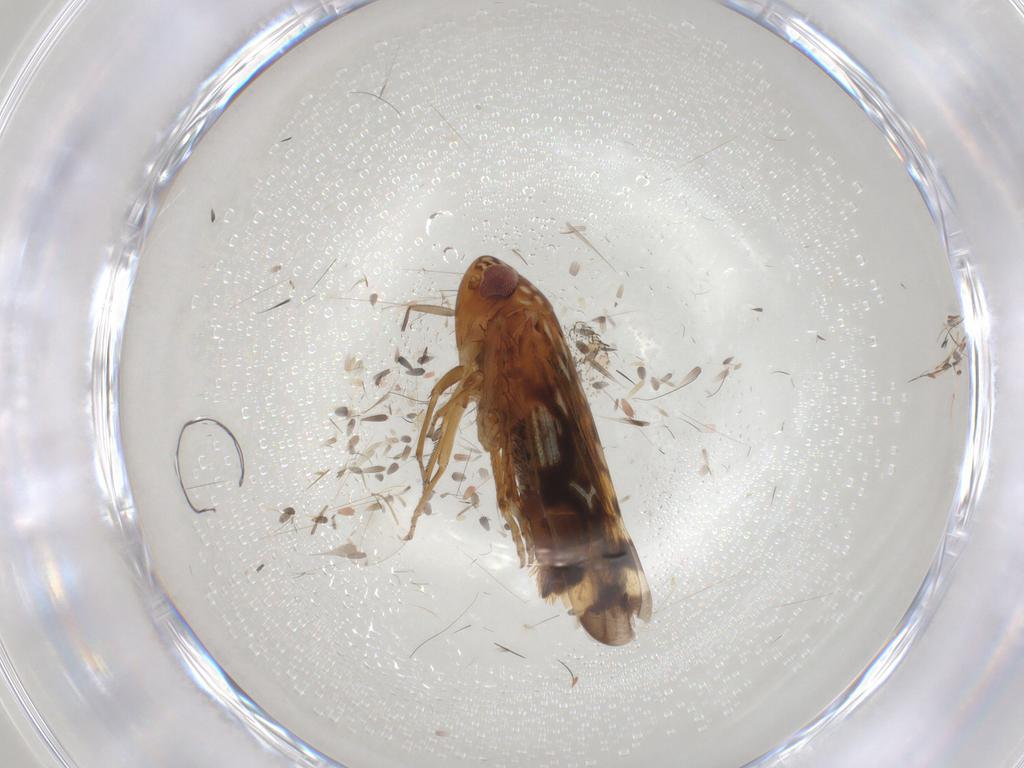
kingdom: Animalia
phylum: Arthropoda
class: Insecta
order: Hemiptera
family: Cicadellidae
